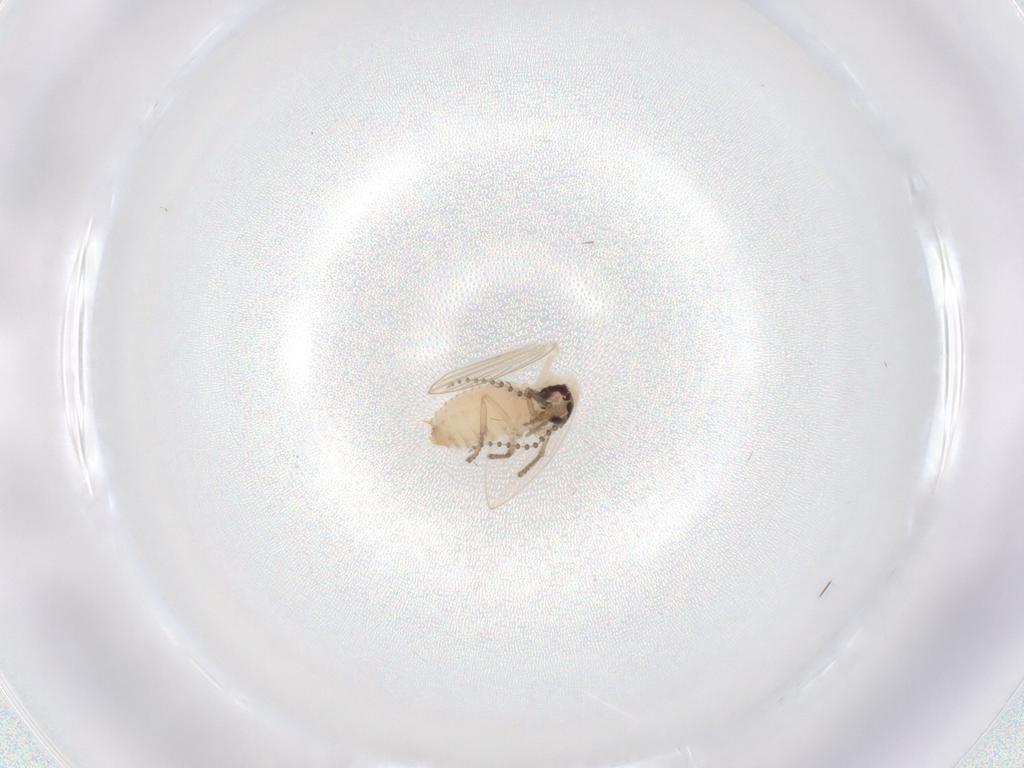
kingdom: Animalia
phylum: Arthropoda
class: Insecta
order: Diptera
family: Psychodidae
